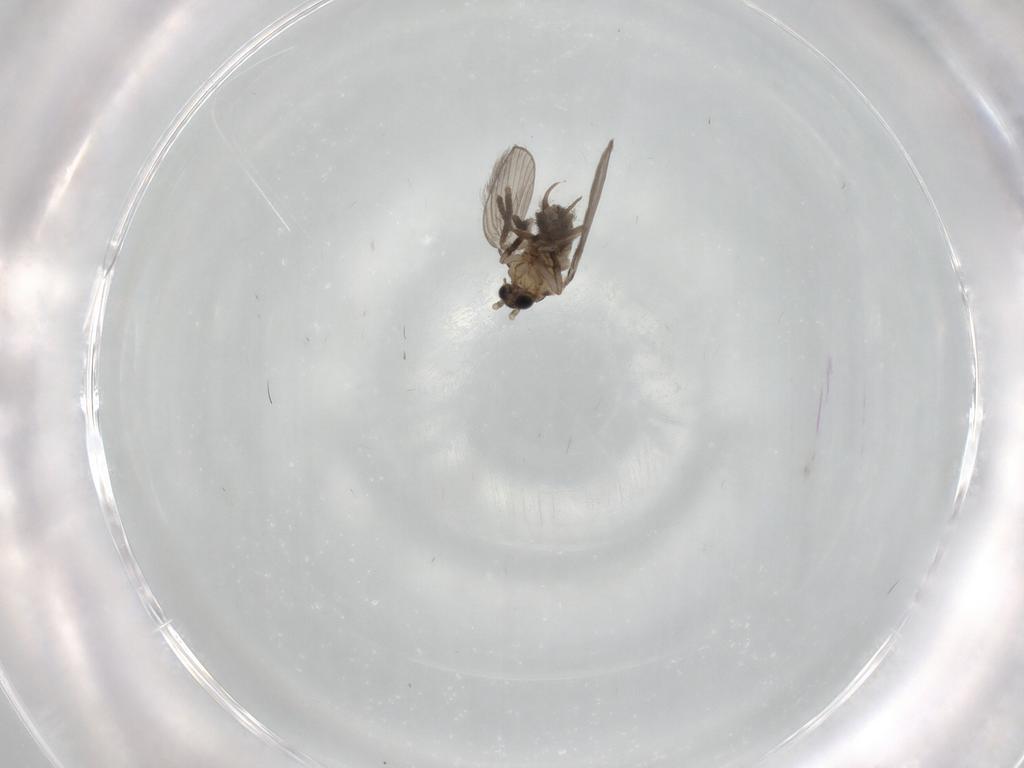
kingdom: Animalia
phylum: Arthropoda
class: Insecta
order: Diptera
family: Psychodidae
